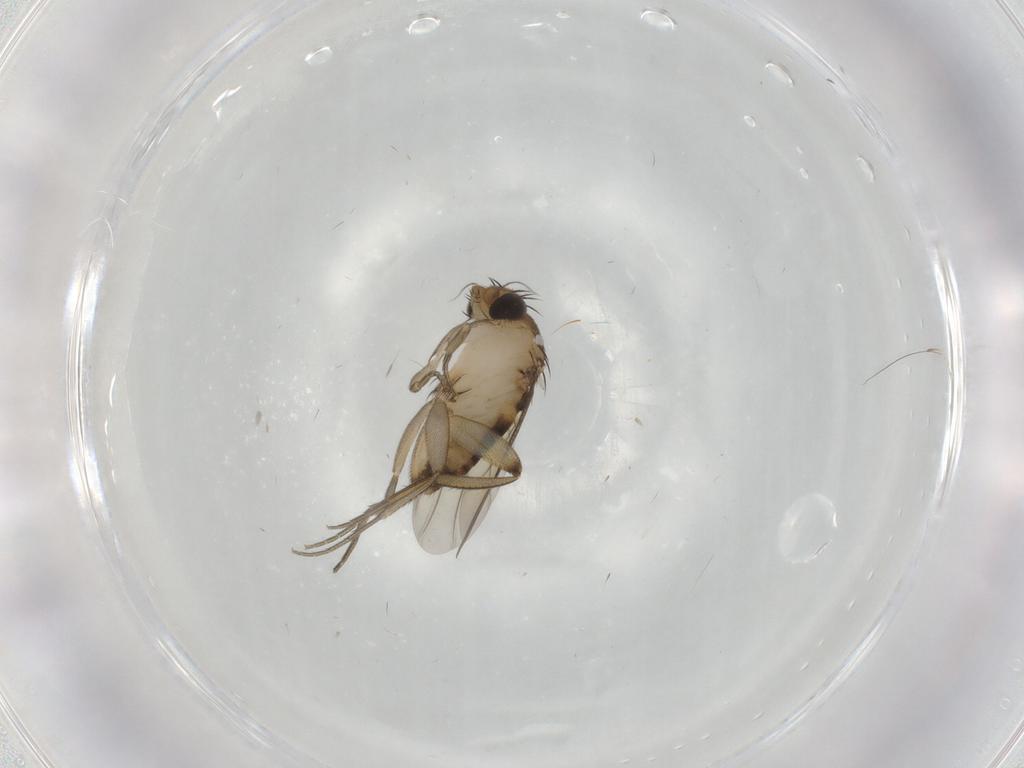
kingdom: Animalia
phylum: Arthropoda
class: Insecta
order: Diptera
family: Phoridae
